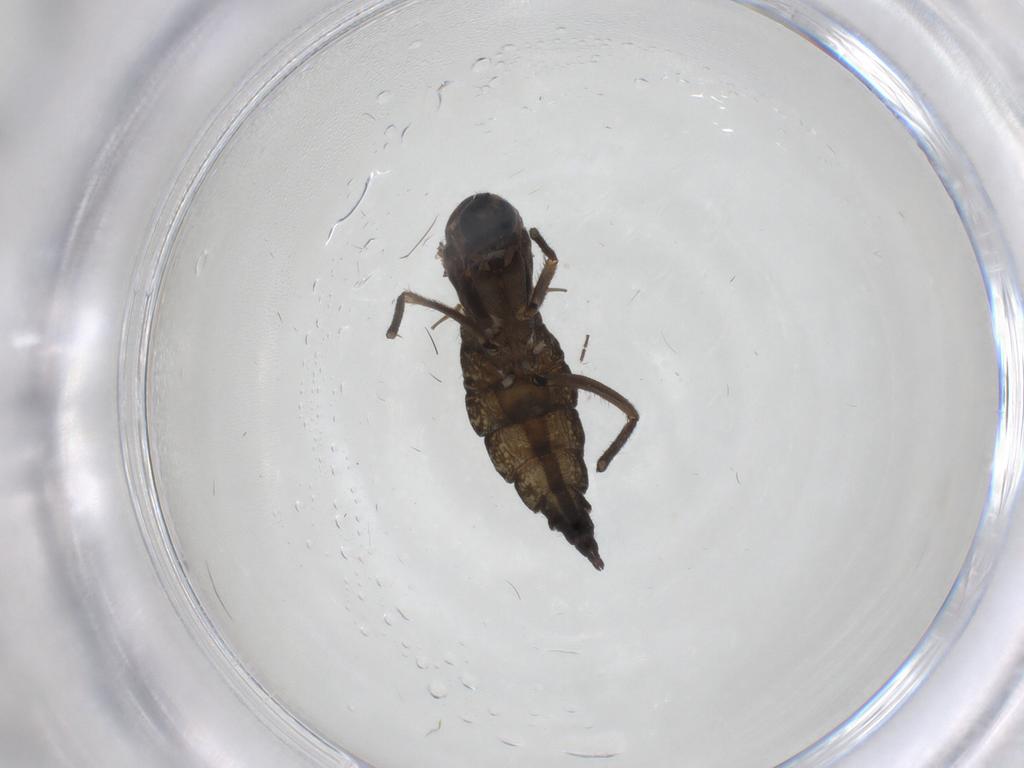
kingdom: Animalia
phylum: Arthropoda
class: Insecta
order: Diptera
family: Sciaridae
